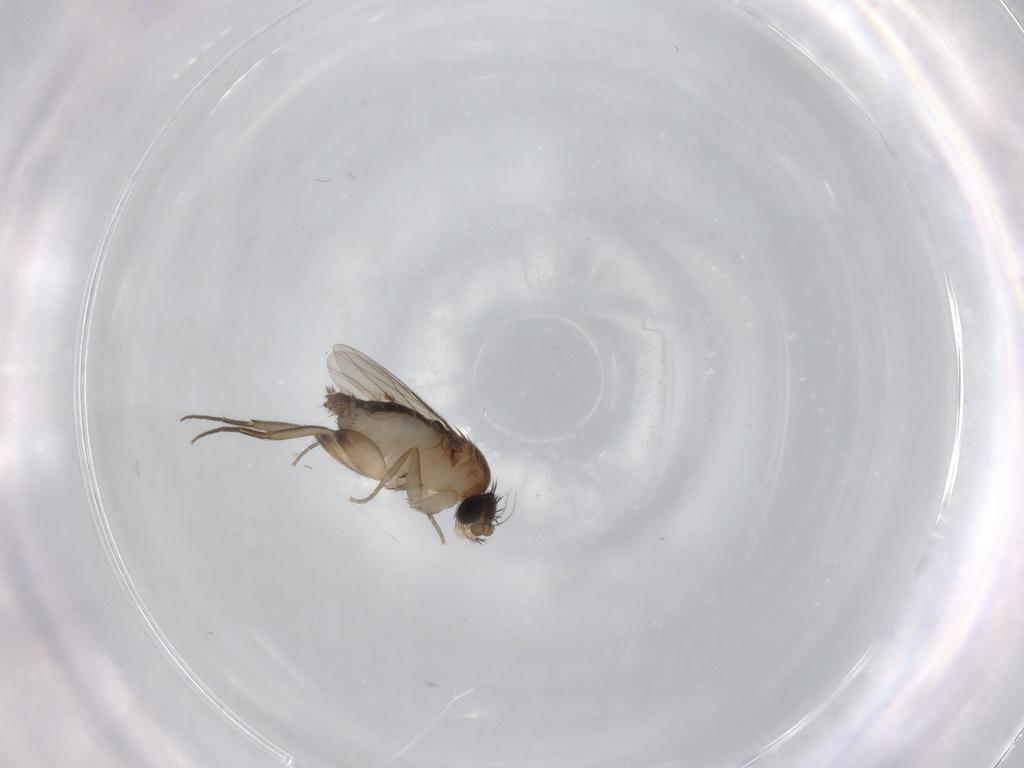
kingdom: Animalia
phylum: Arthropoda
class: Insecta
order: Diptera
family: Phoridae
